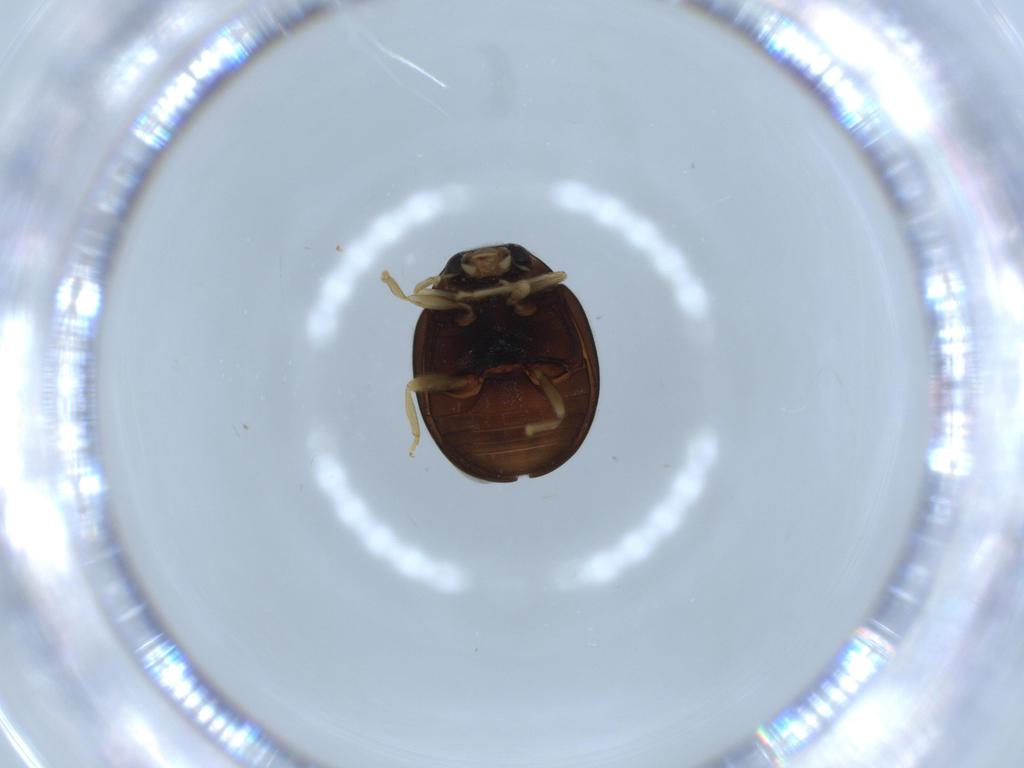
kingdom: Animalia
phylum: Arthropoda
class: Insecta
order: Coleoptera
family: Coccinellidae
